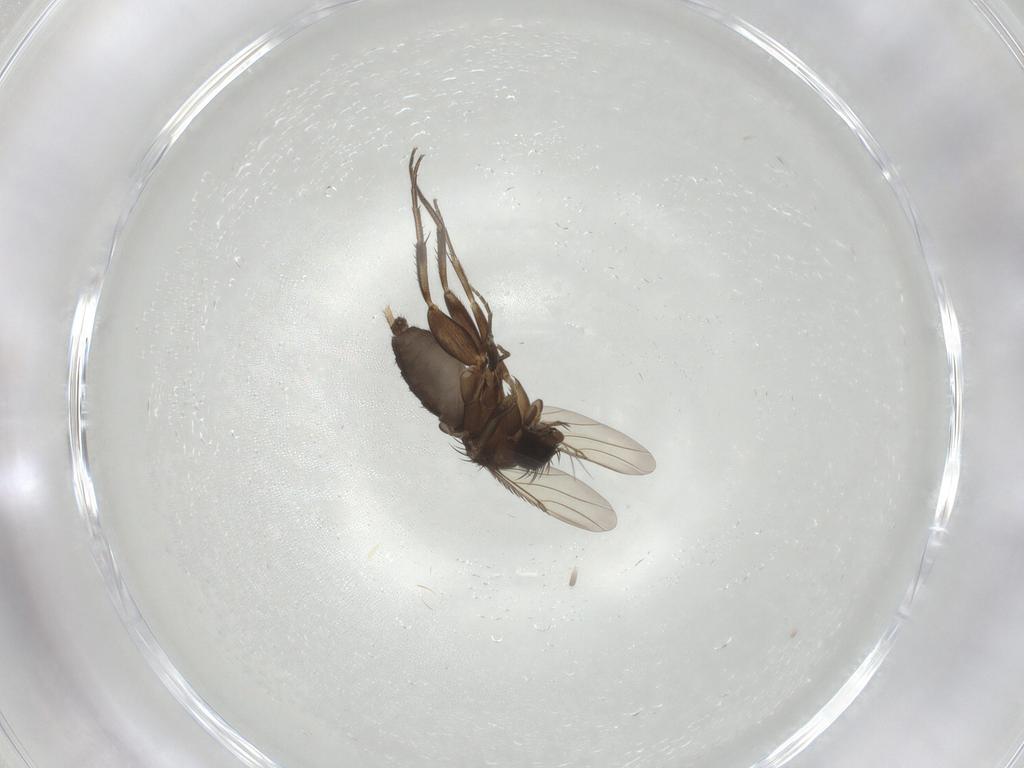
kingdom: Animalia
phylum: Arthropoda
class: Insecta
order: Diptera
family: Phoridae
